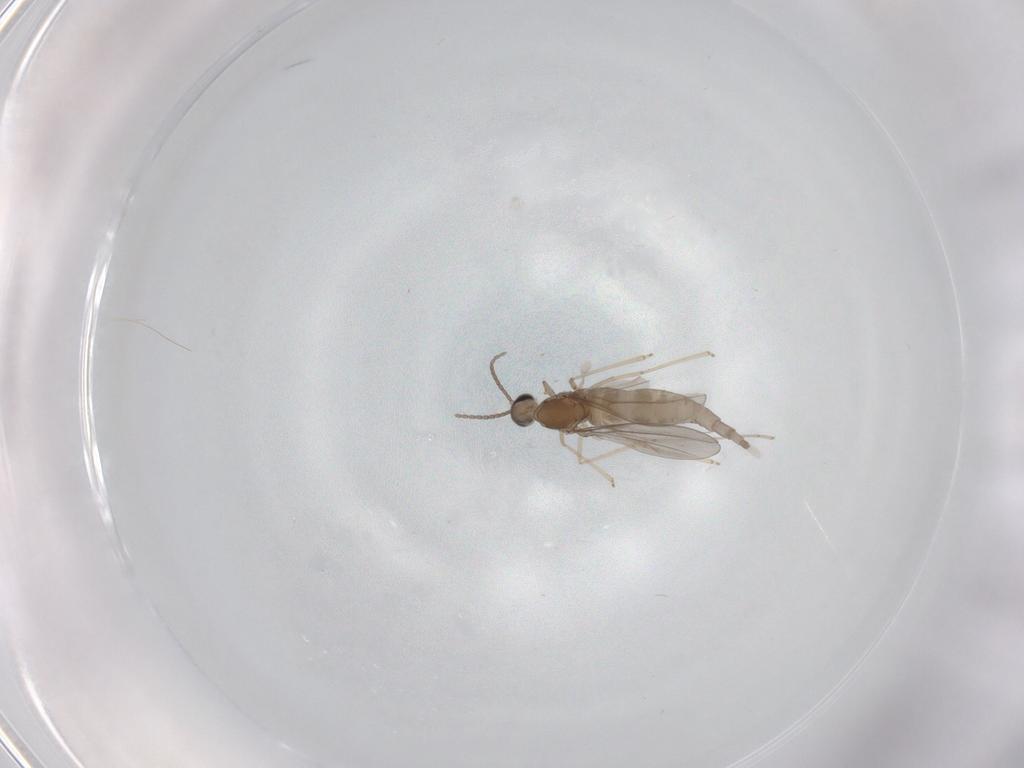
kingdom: Animalia
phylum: Arthropoda
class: Insecta
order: Diptera
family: Cecidomyiidae
